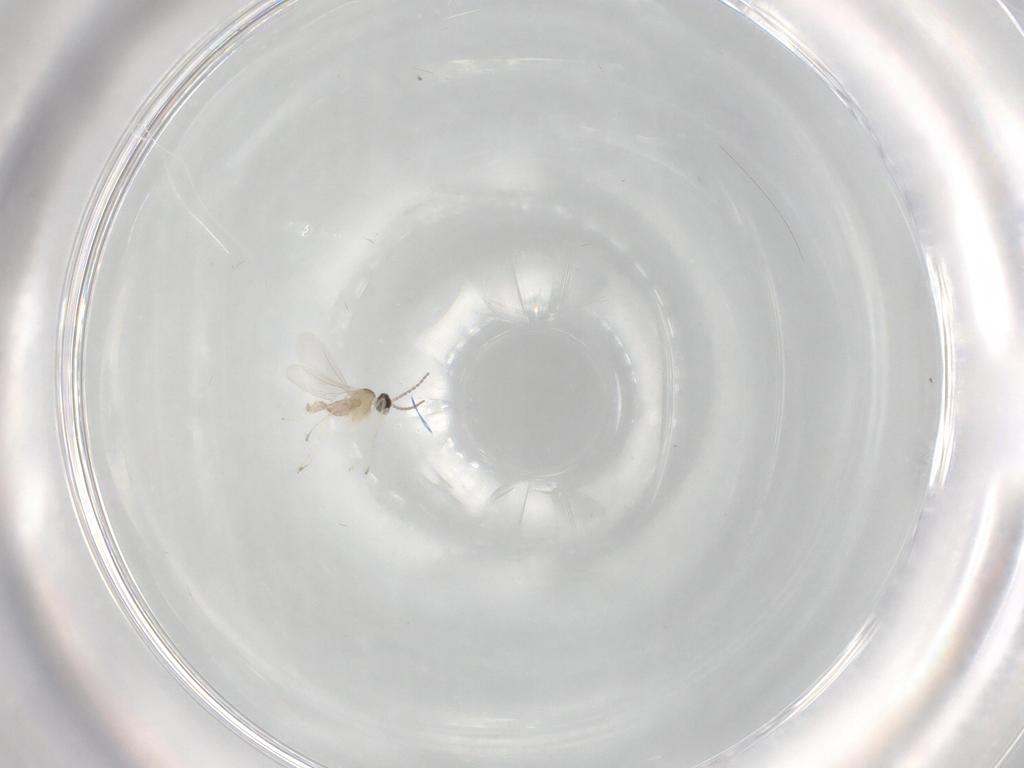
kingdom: Animalia
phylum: Arthropoda
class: Insecta
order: Diptera
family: Cecidomyiidae
